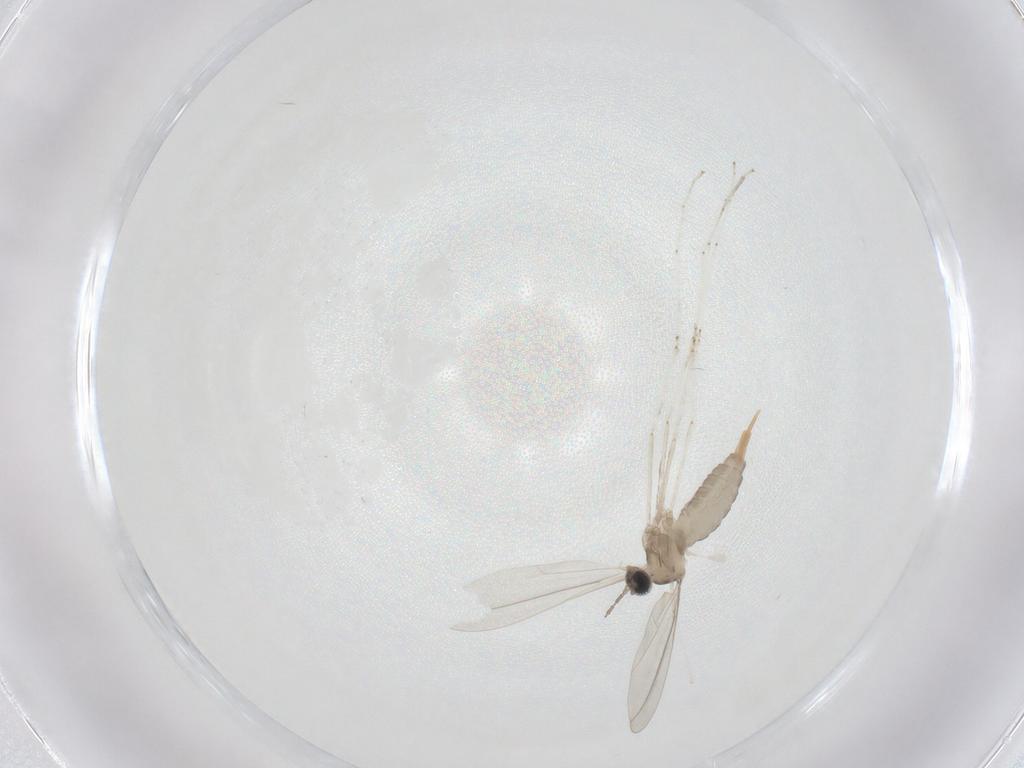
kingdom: Animalia
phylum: Arthropoda
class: Insecta
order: Diptera
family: Cecidomyiidae
